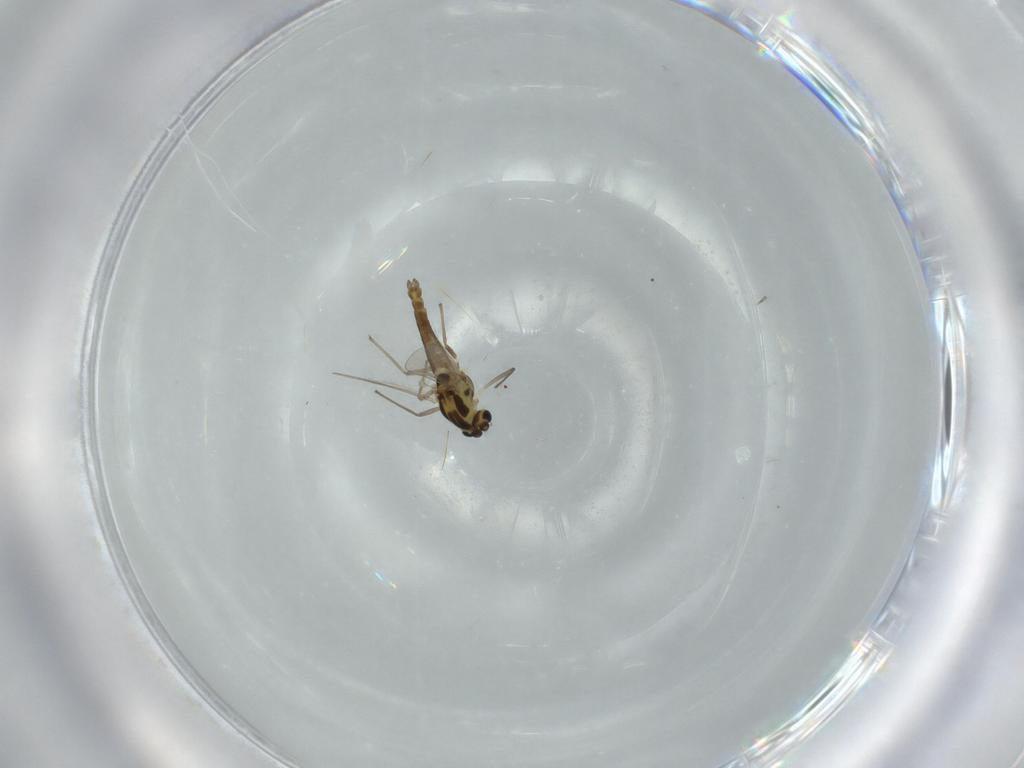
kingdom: Animalia
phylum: Arthropoda
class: Insecta
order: Diptera
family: Chironomidae
